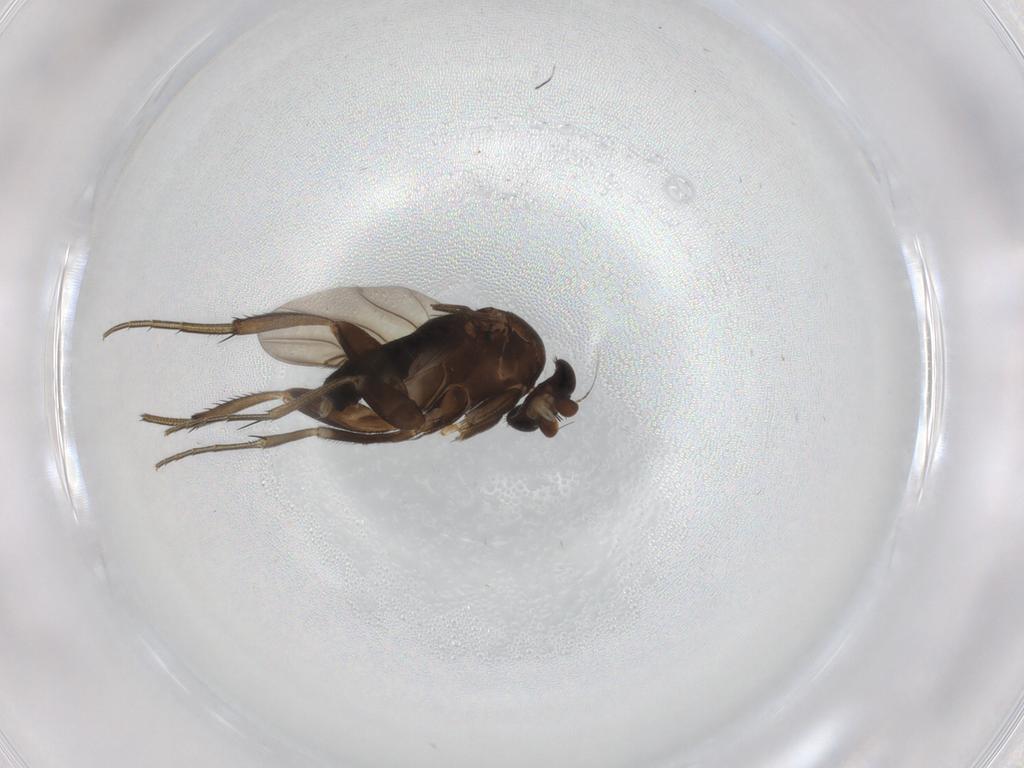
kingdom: Animalia
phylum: Arthropoda
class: Insecta
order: Diptera
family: Phoridae
